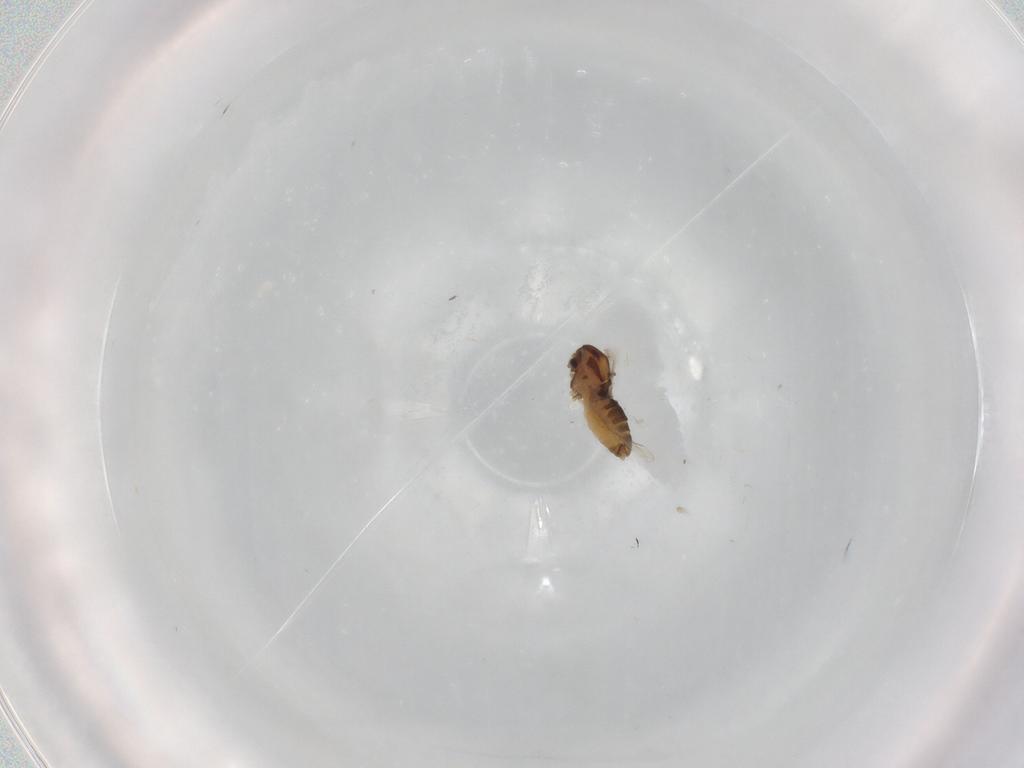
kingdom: Animalia
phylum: Arthropoda
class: Insecta
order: Diptera
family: Chironomidae
